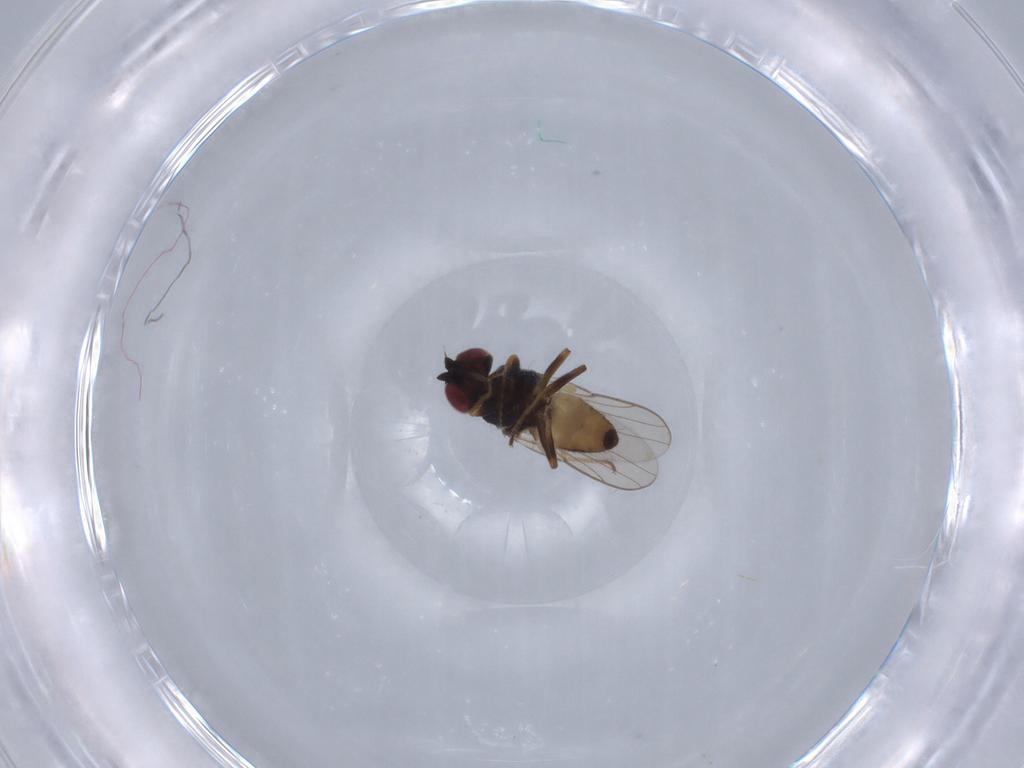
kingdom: Animalia
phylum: Arthropoda
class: Insecta
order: Diptera
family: Chloropidae
